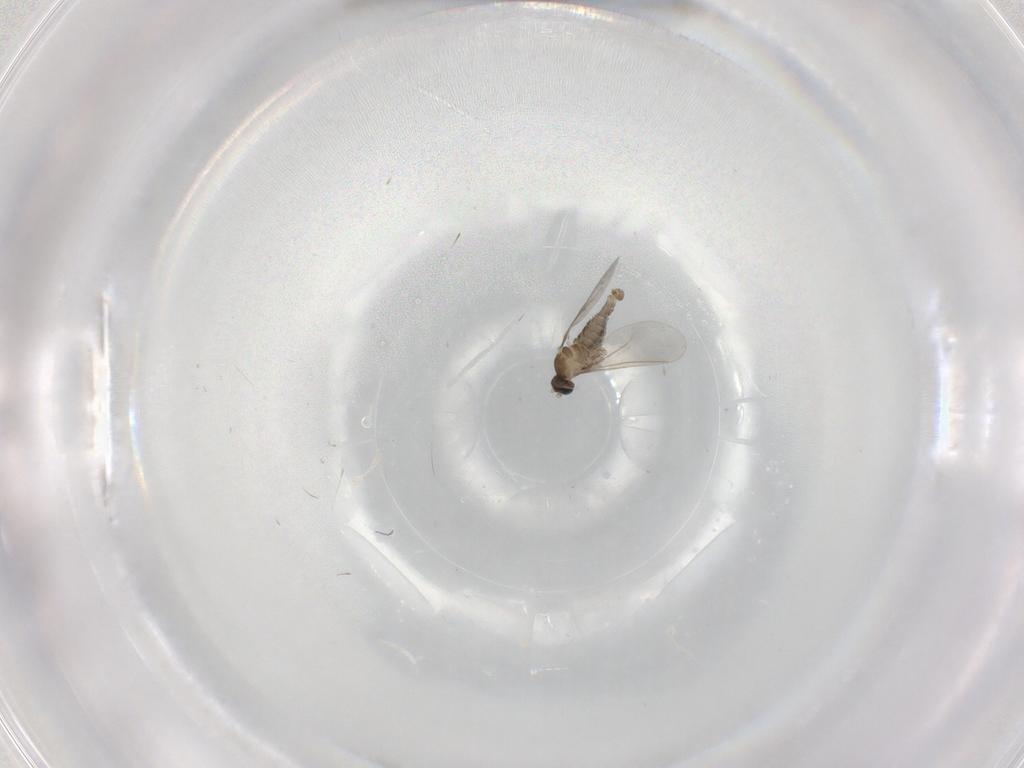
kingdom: Animalia
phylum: Arthropoda
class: Insecta
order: Diptera
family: Cecidomyiidae
